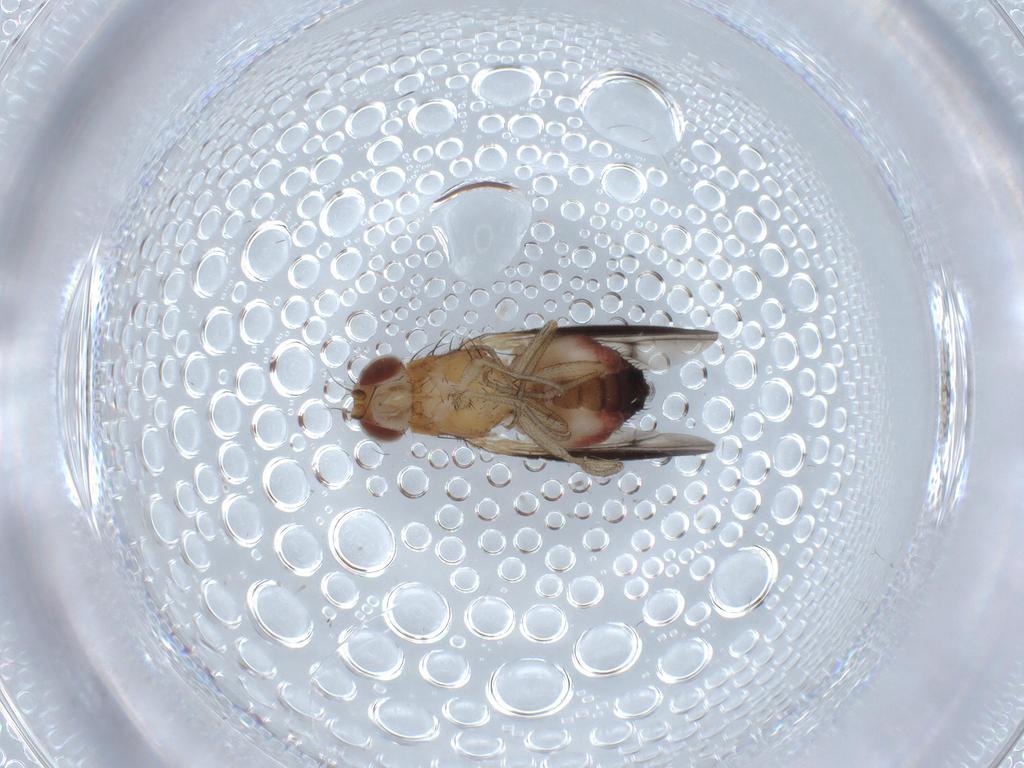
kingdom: Animalia
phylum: Arthropoda
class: Insecta
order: Diptera
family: Heleomyzidae
